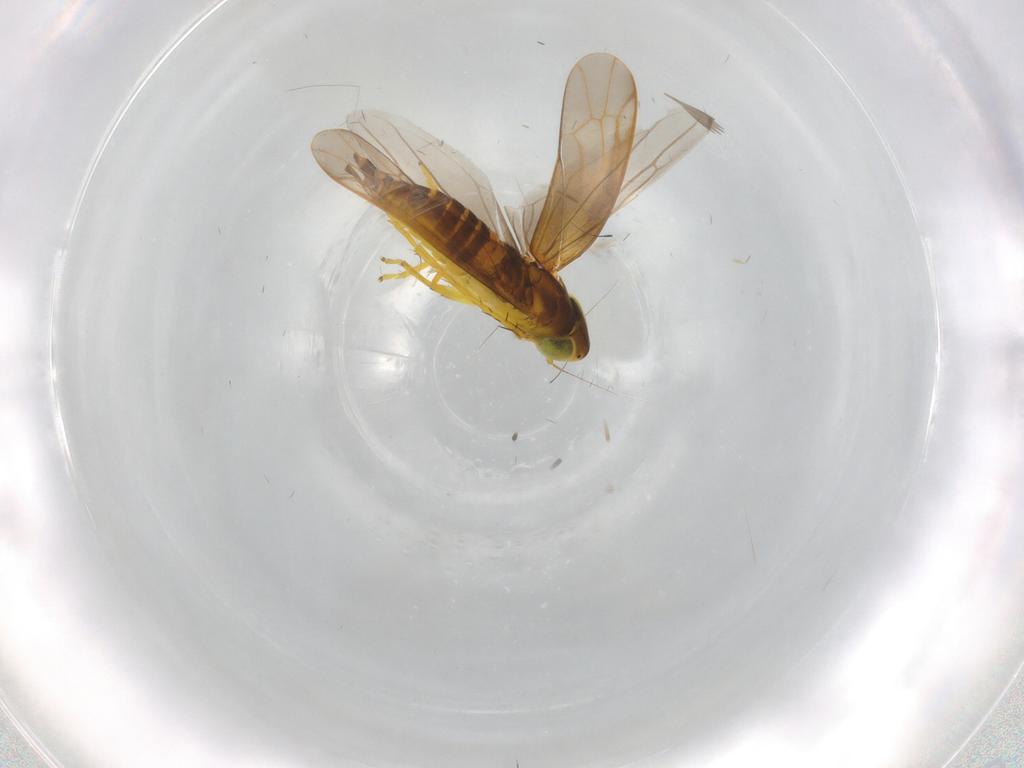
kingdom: Animalia
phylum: Arthropoda
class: Insecta
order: Hemiptera
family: Cicadellidae
